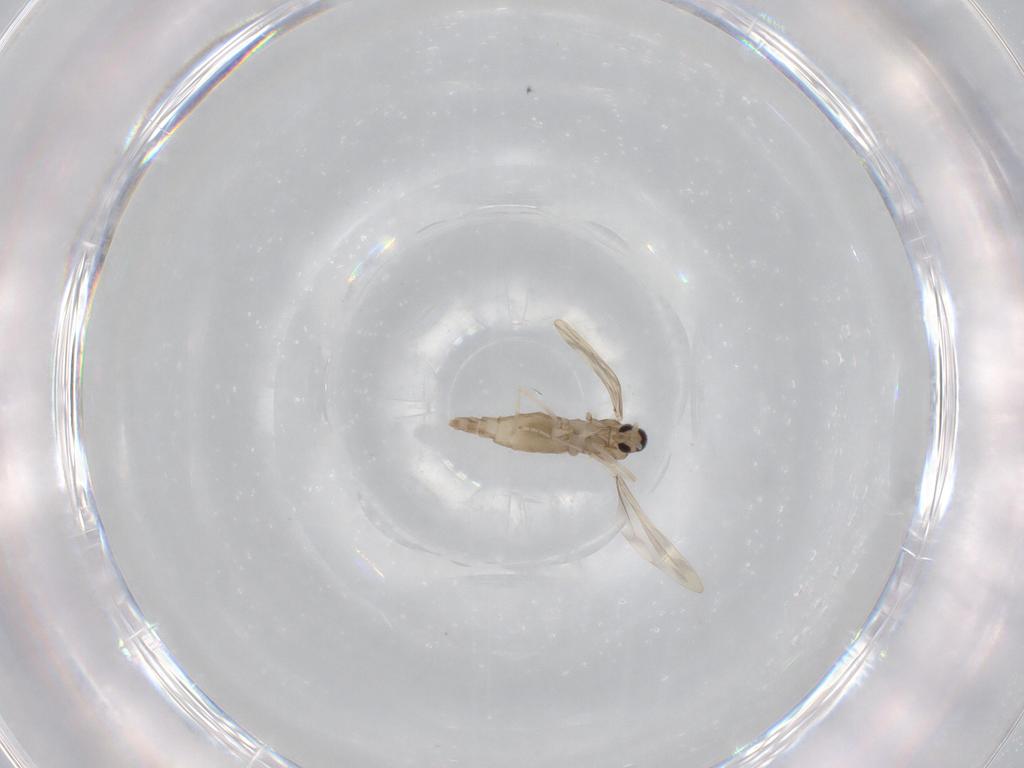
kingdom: Animalia
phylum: Arthropoda
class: Insecta
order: Diptera
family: Cecidomyiidae
